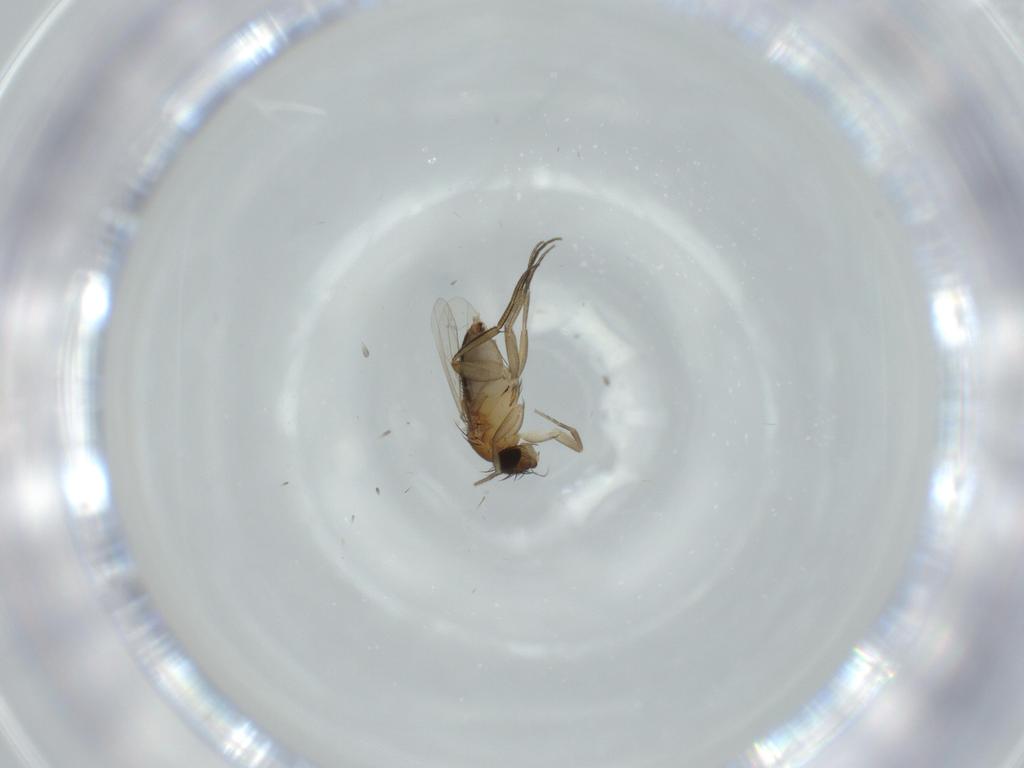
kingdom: Animalia
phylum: Arthropoda
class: Insecta
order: Diptera
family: Phoridae
